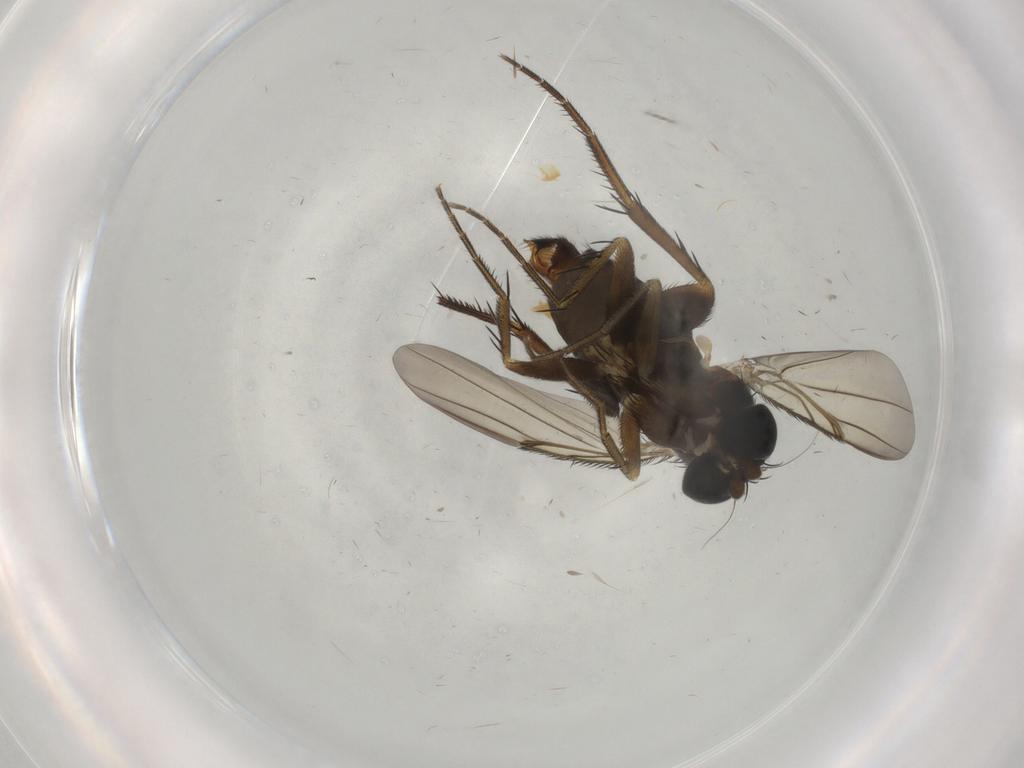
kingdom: Animalia
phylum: Arthropoda
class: Insecta
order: Diptera
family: Phoridae
